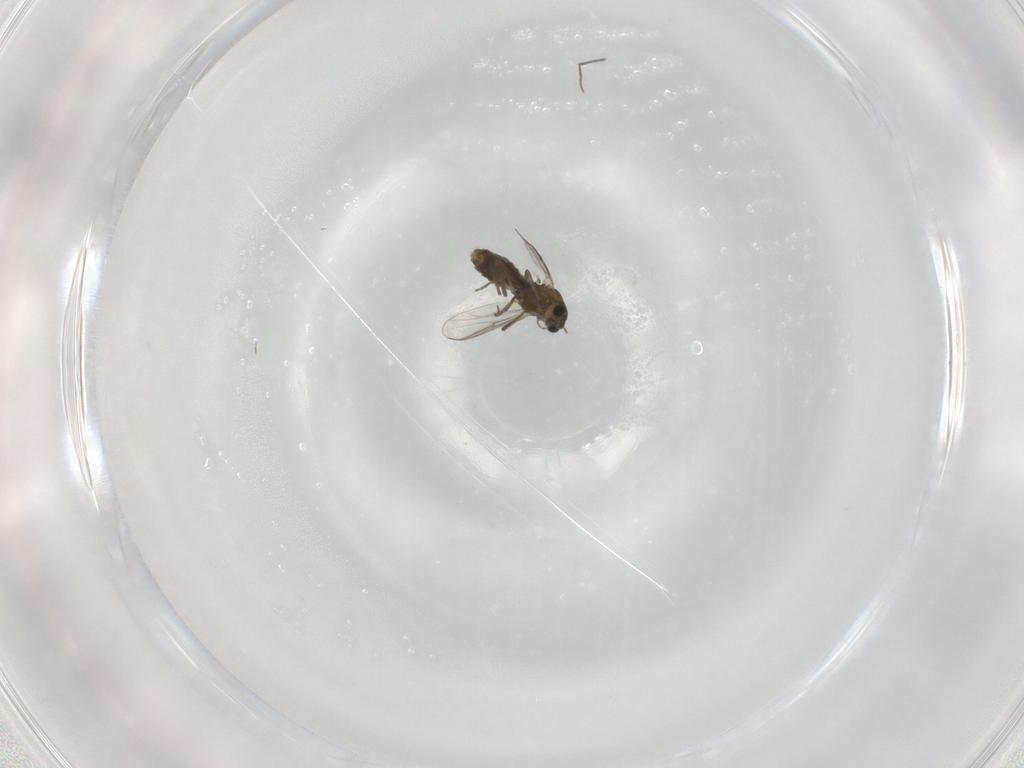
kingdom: Animalia
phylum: Arthropoda
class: Insecta
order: Diptera
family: Chironomidae
